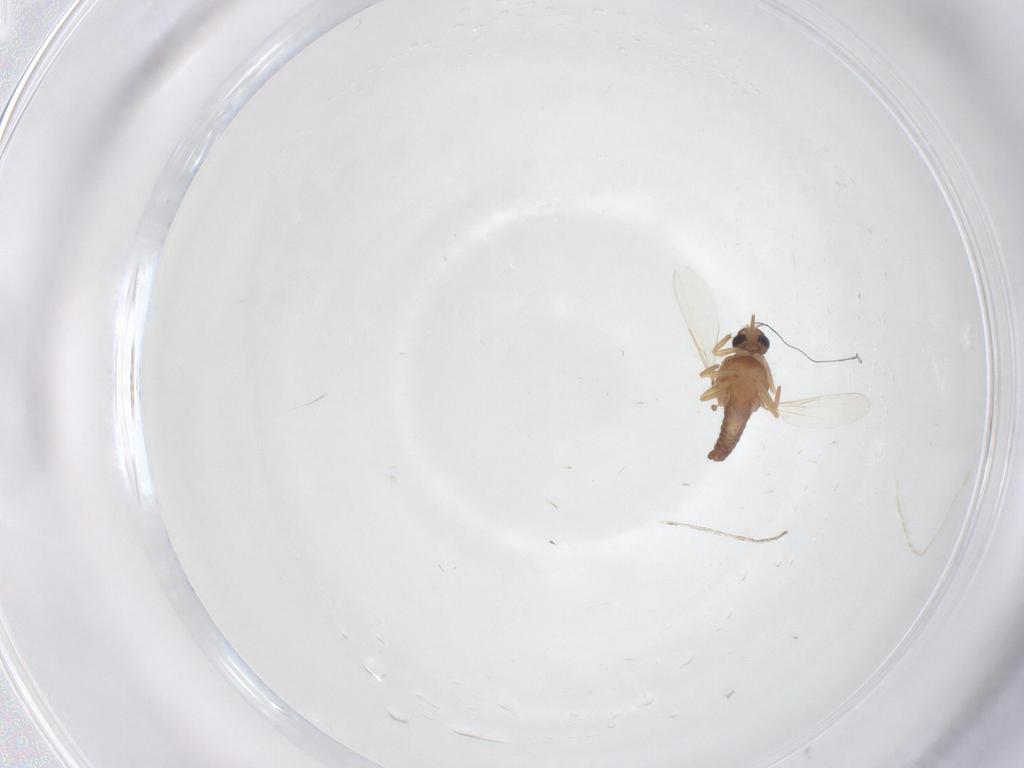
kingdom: Animalia
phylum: Arthropoda
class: Insecta
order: Diptera
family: Cecidomyiidae
